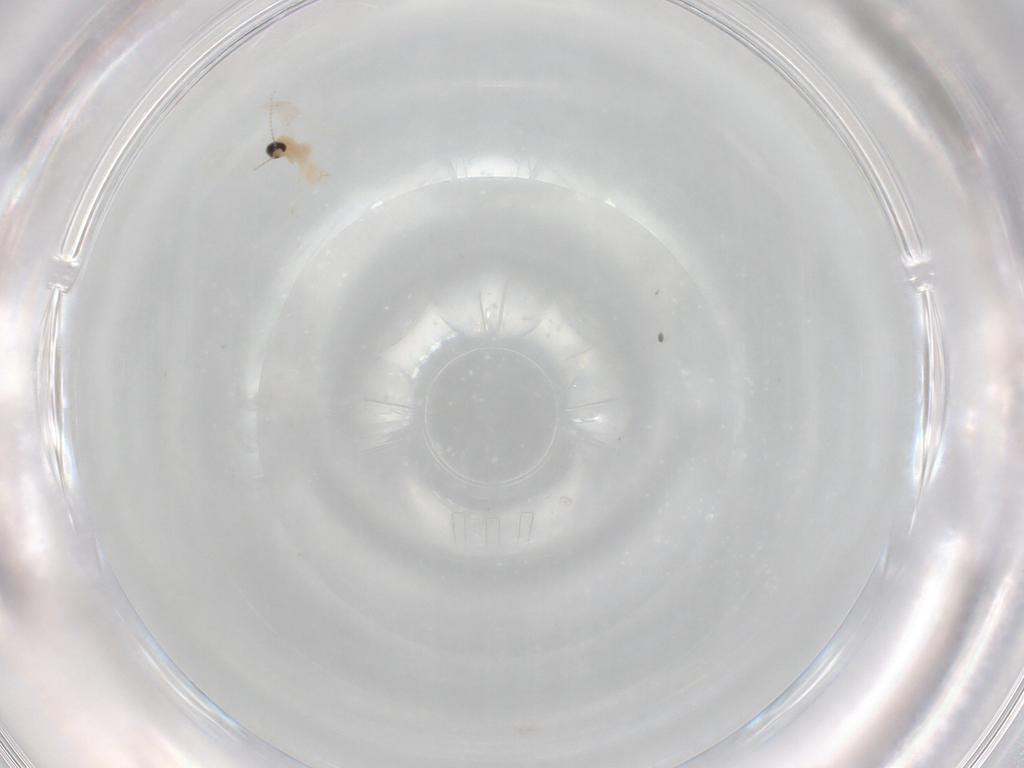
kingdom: Animalia
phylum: Arthropoda
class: Insecta
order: Diptera
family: Cecidomyiidae
